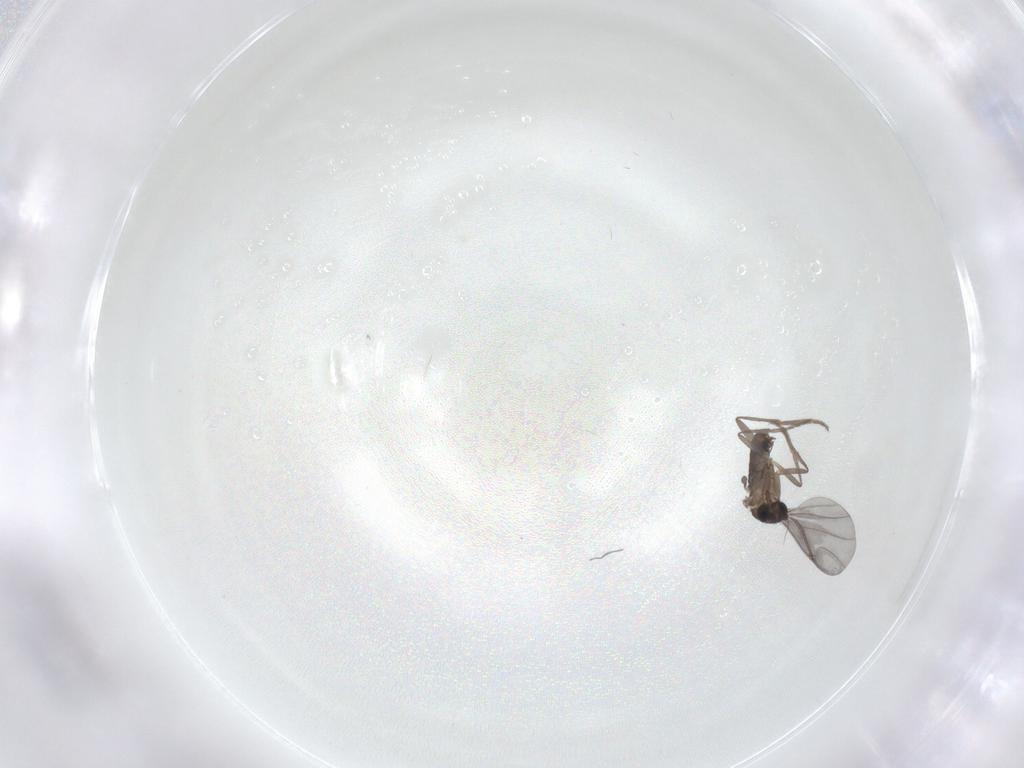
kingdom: Animalia
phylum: Arthropoda
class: Insecta
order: Diptera
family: Phoridae
